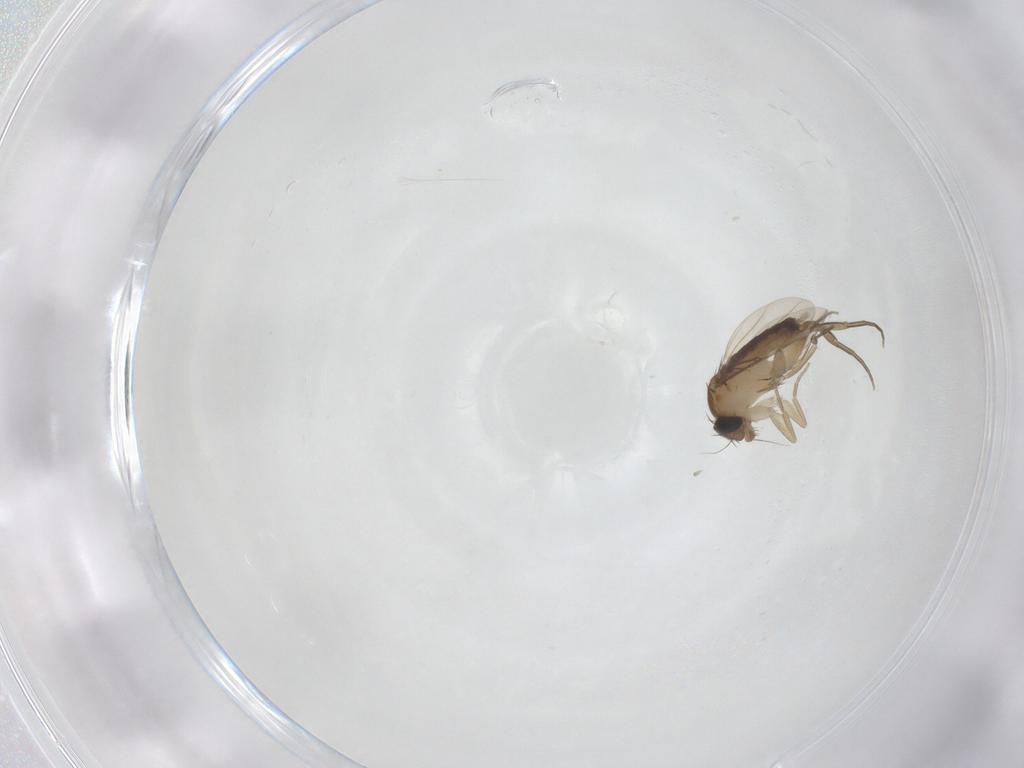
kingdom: Animalia
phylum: Arthropoda
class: Insecta
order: Diptera
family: Phoridae
